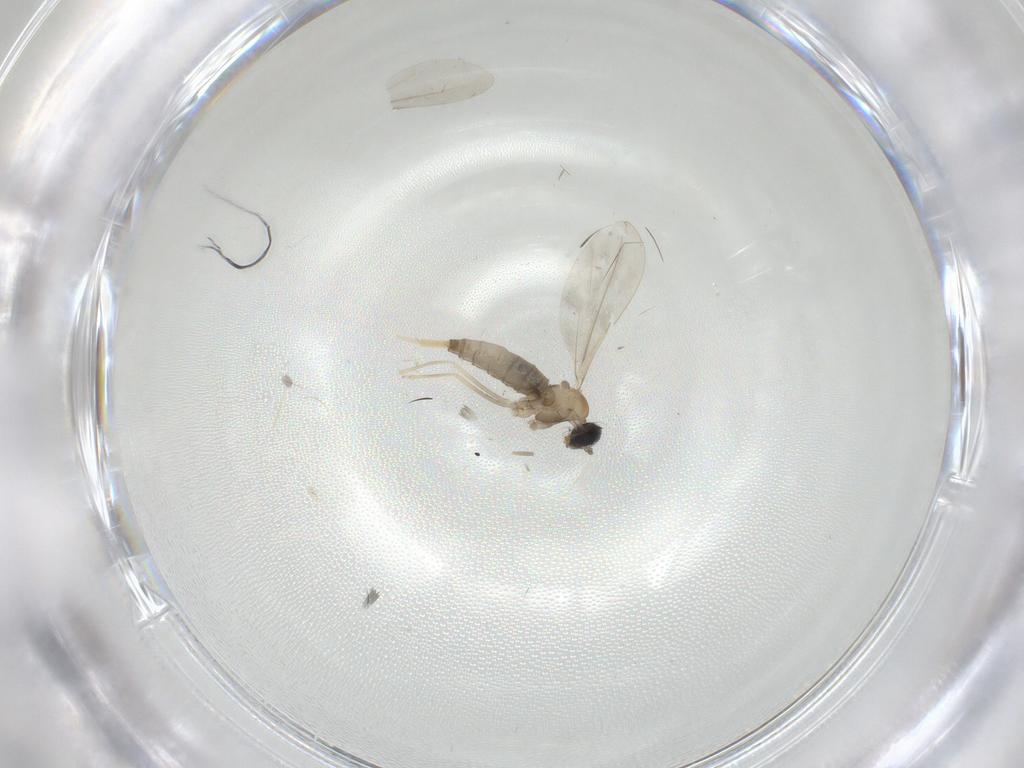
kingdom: Animalia
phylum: Arthropoda
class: Insecta
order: Diptera
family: Cecidomyiidae
